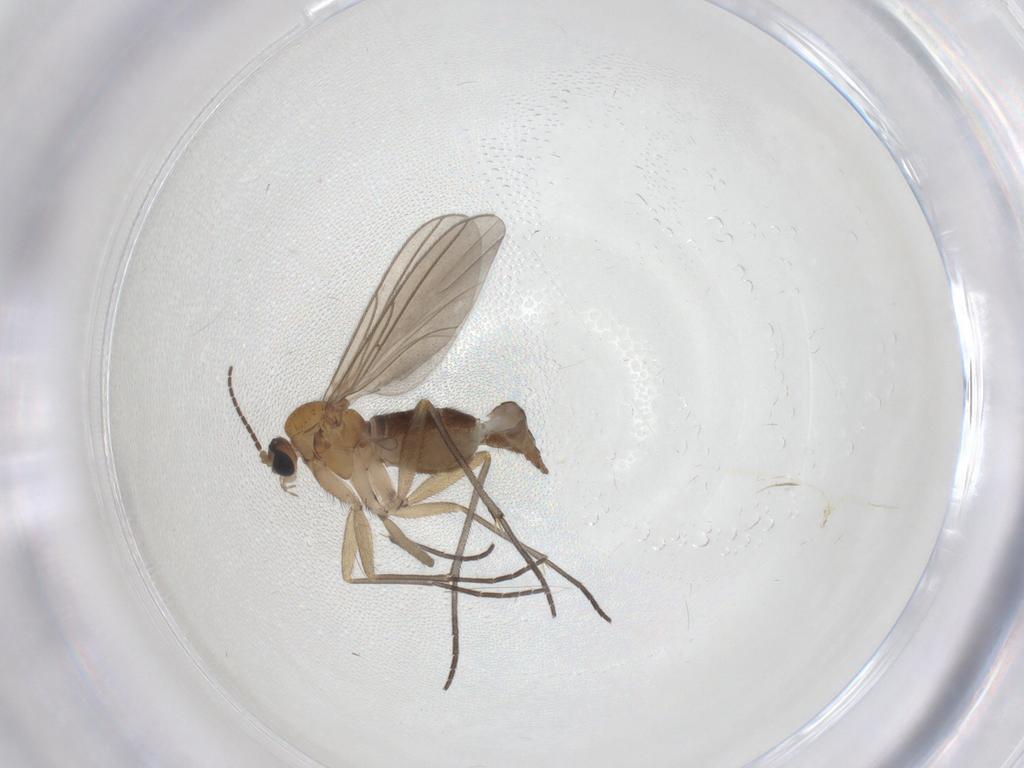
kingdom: Animalia
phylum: Arthropoda
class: Insecta
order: Diptera
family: Sciaridae
